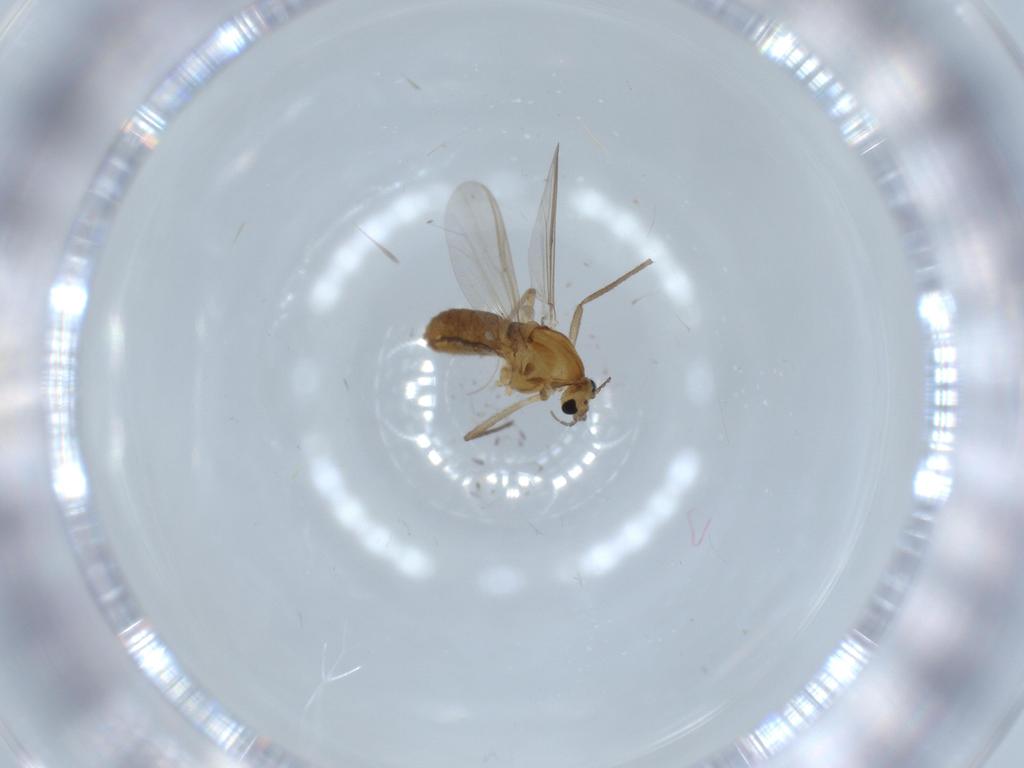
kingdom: Animalia
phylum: Arthropoda
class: Insecta
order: Diptera
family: Chironomidae
